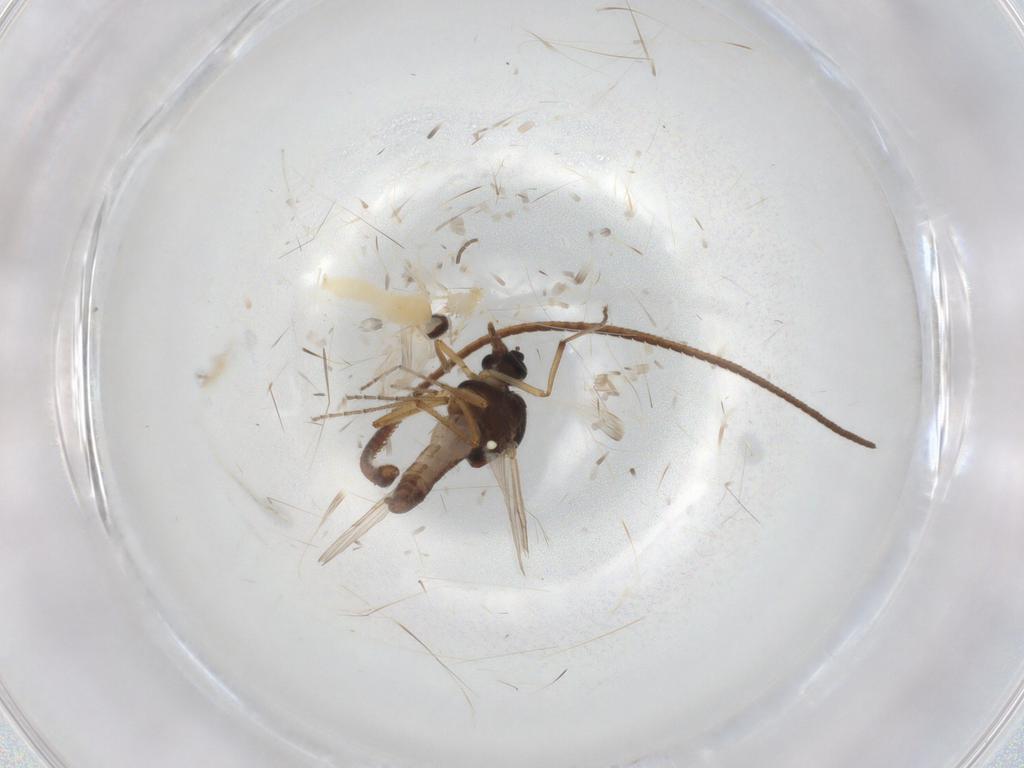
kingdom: Animalia
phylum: Arthropoda
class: Insecta
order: Diptera
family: Ceratopogonidae
